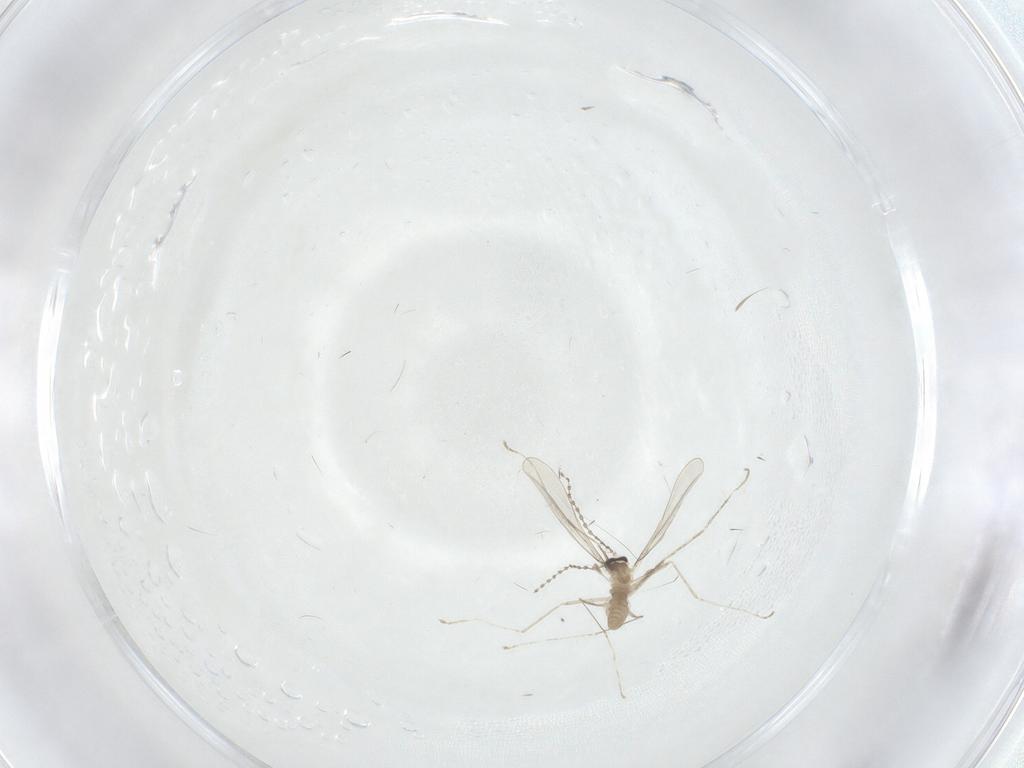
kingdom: Animalia
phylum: Arthropoda
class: Insecta
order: Diptera
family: Cecidomyiidae
